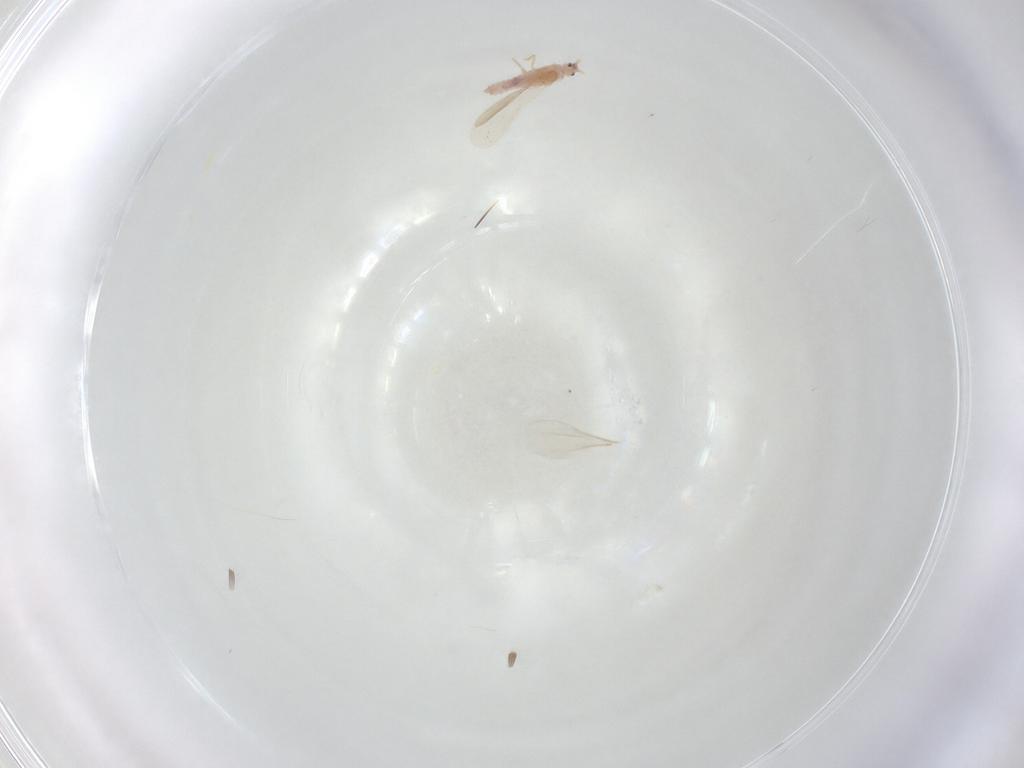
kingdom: Animalia
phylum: Arthropoda
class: Insecta
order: Hemiptera
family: Pseudococcidae
